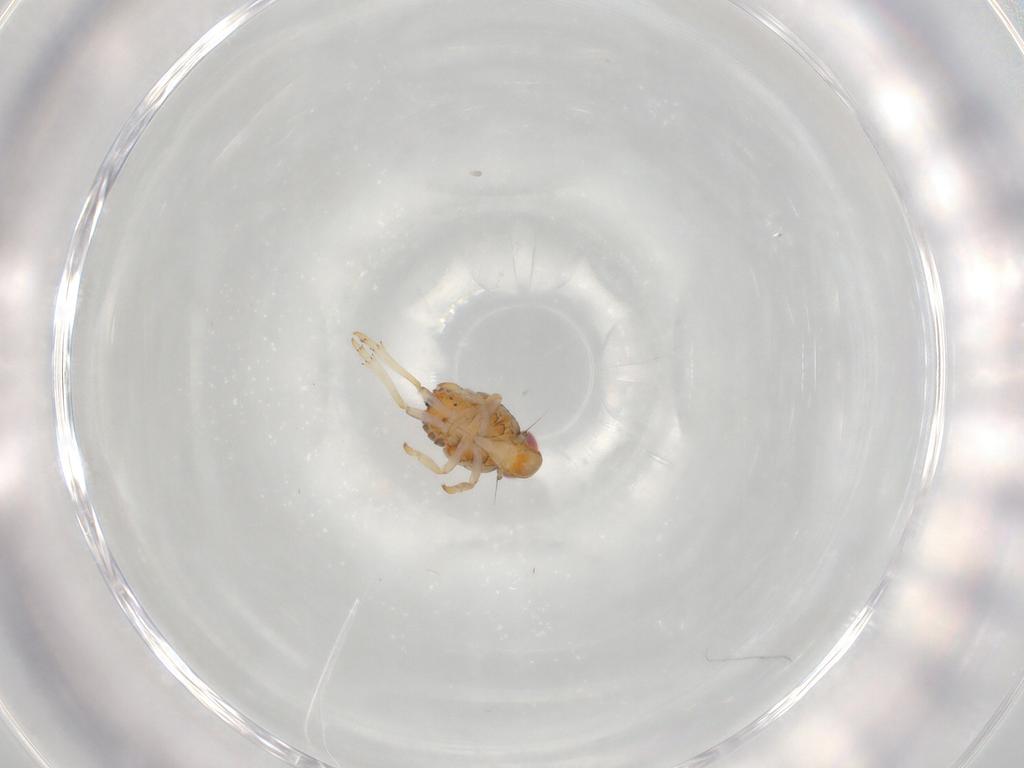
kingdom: Animalia
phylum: Arthropoda
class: Insecta
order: Hemiptera
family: Issidae
